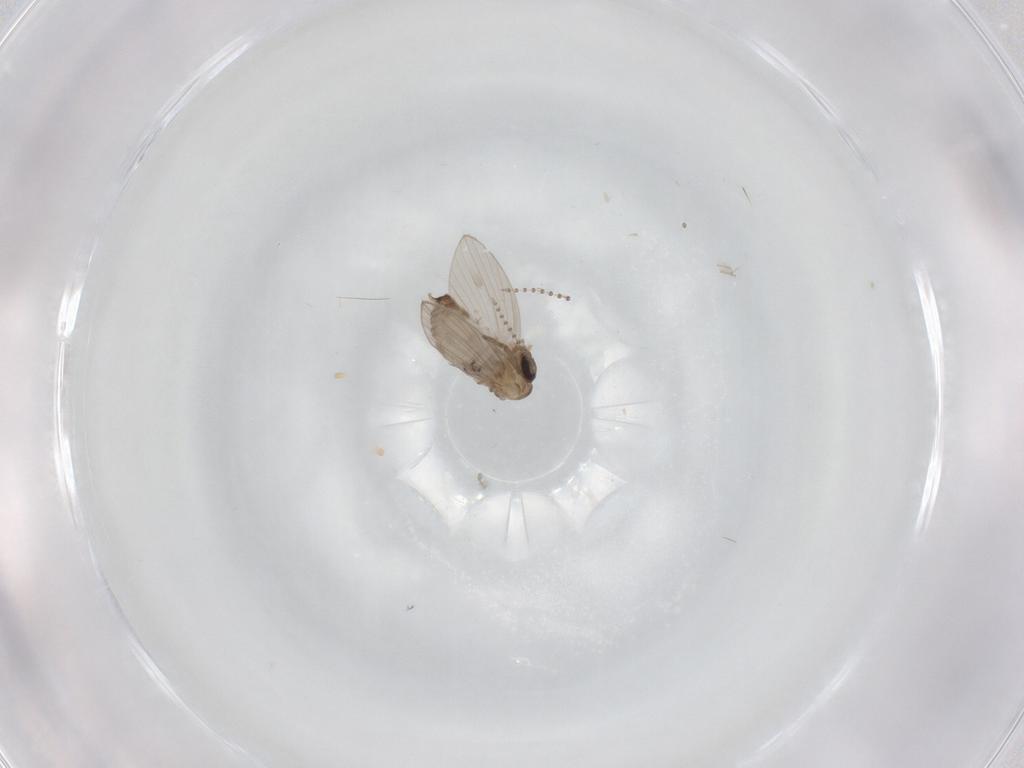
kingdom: Animalia
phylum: Arthropoda
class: Insecta
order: Diptera
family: Psychodidae
